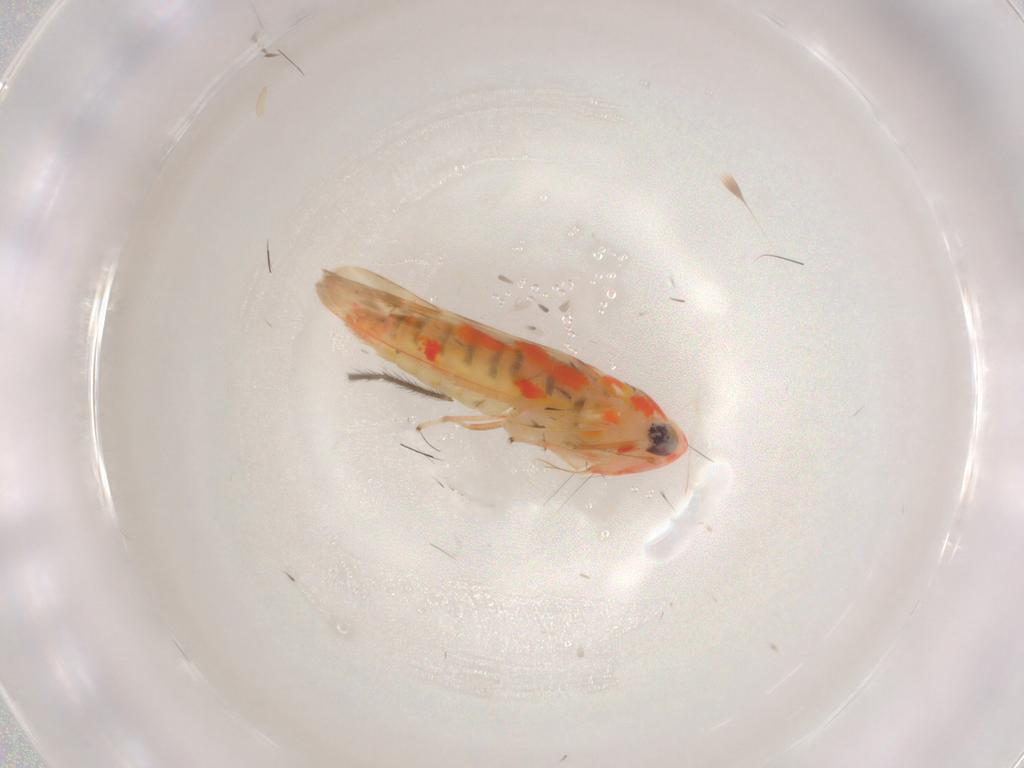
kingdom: Animalia
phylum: Arthropoda
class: Insecta
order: Hemiptera
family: Cicadellidae
